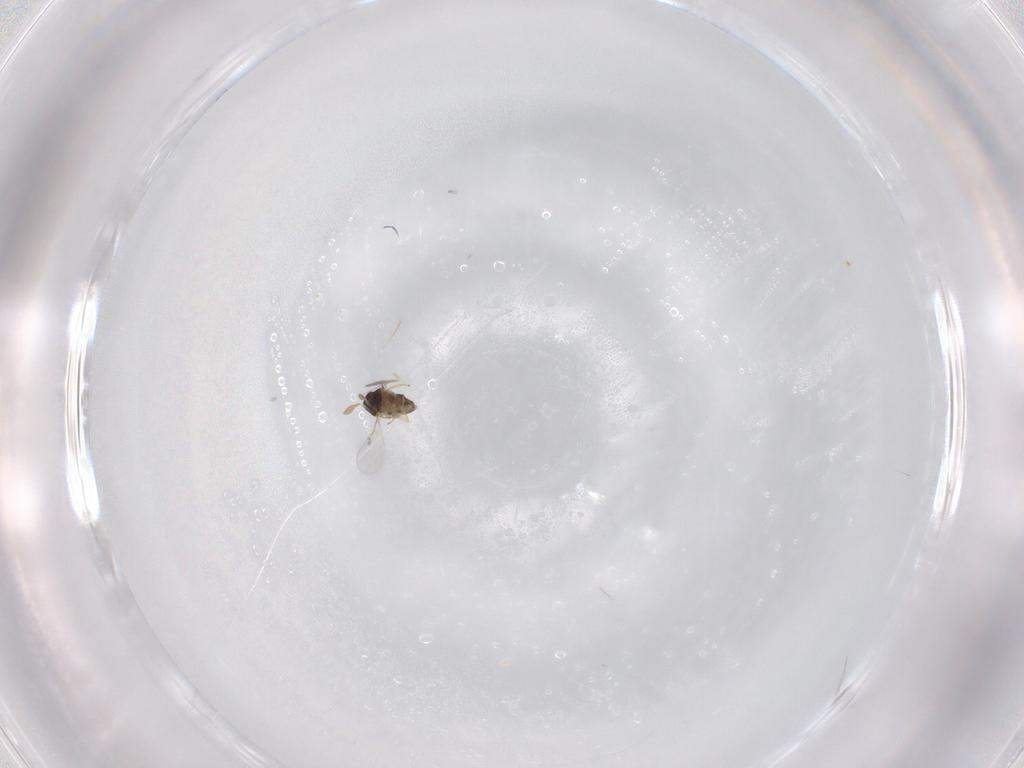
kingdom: Animalia
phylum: Arthropoda
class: Insecta
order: Hymenoptera
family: Encyrtidae
